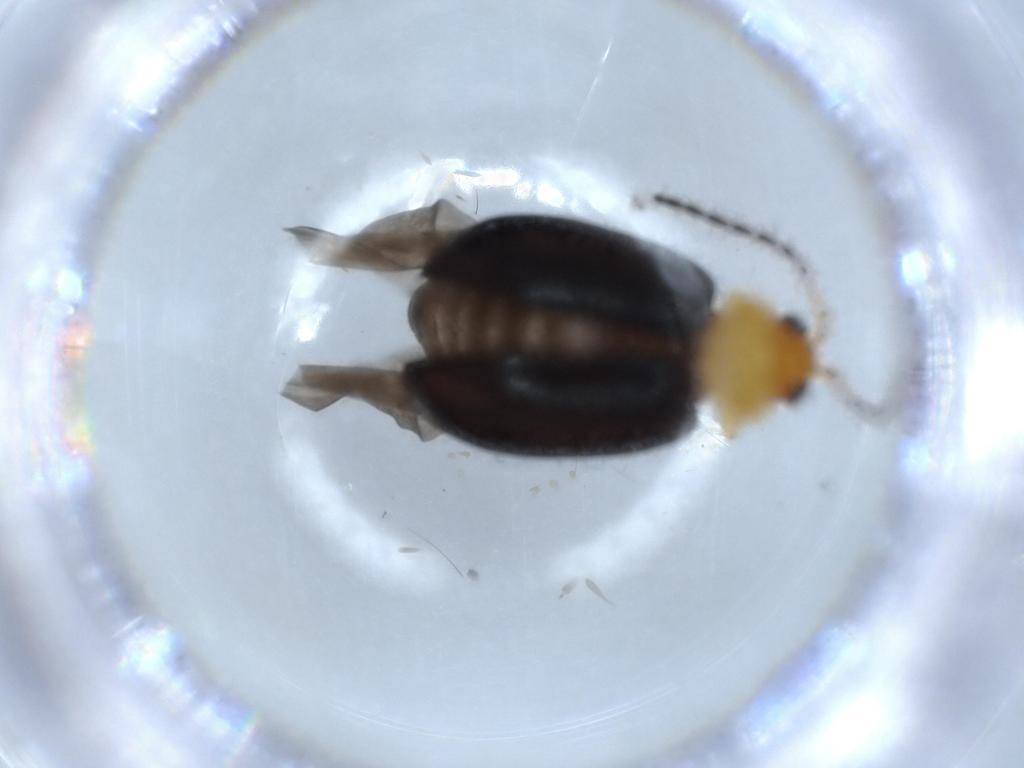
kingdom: Animalia
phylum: Arthropoda
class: Insecta
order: Coleoptera
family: Chrysomelidae
